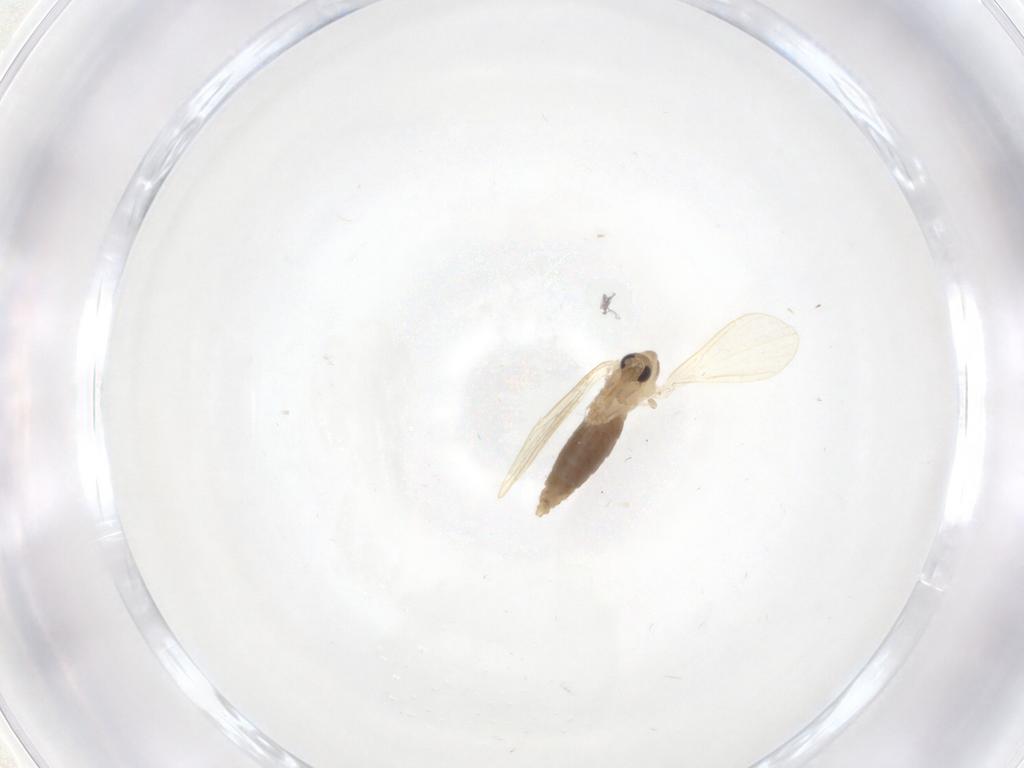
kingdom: Animalia
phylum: Arthropoda
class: Insecta
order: Diptera
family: Psychodidae
